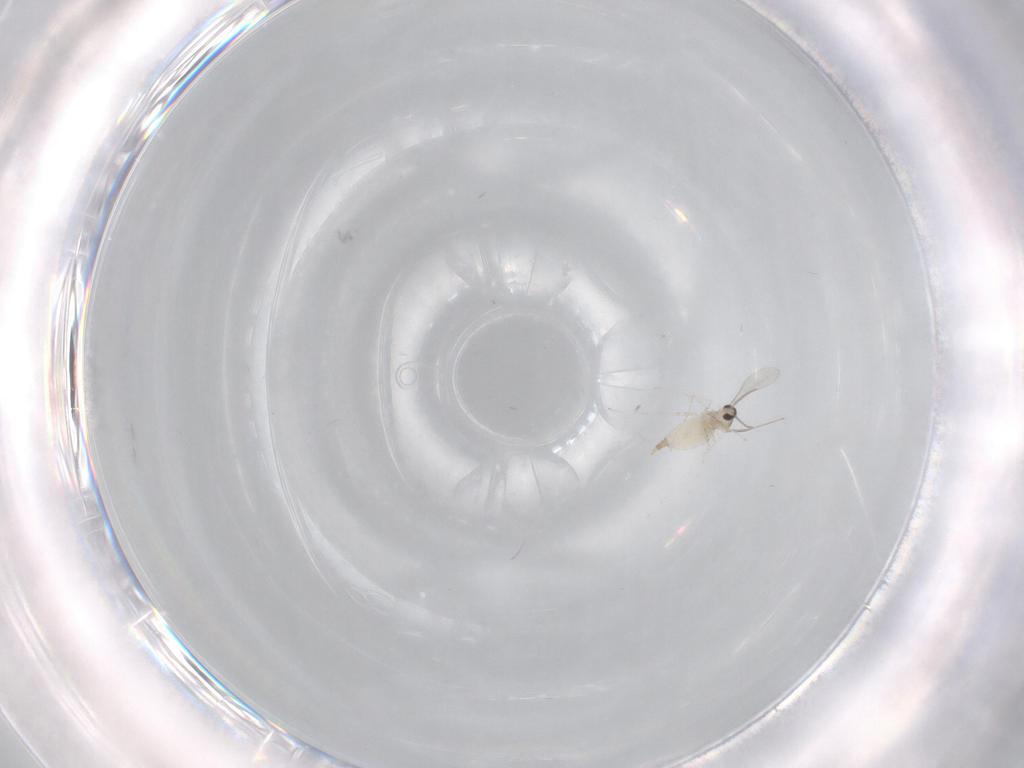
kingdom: Animalia
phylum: Arthropoda
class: Insecta
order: Diptera
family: Cecidomyiidae
